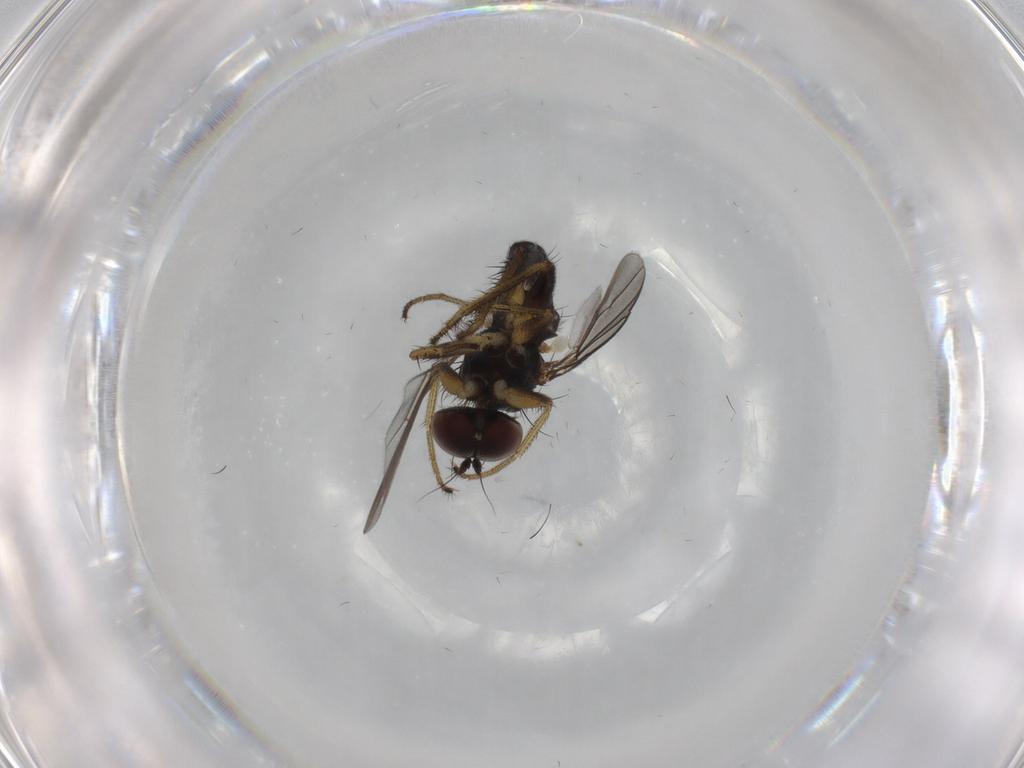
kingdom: Animalia
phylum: Arthropoda
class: Insecta
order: Diptera
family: Dolichopodidae
